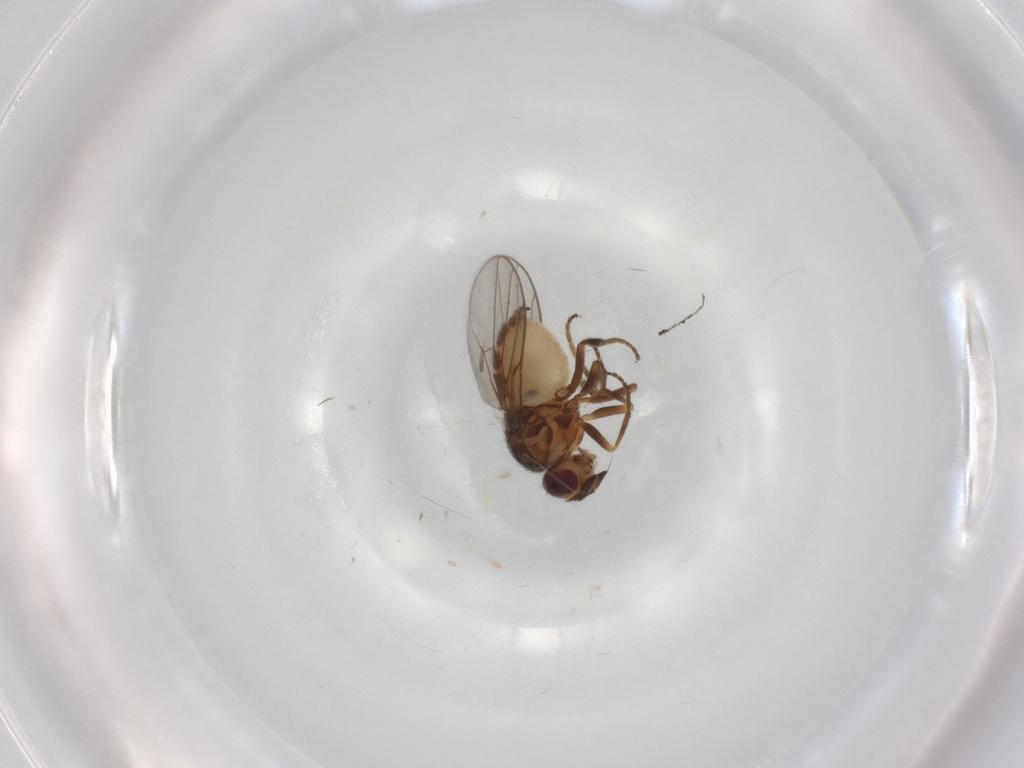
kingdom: Animalia
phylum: Arthropoda
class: Insecta
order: Diptera
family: Chloropidae
